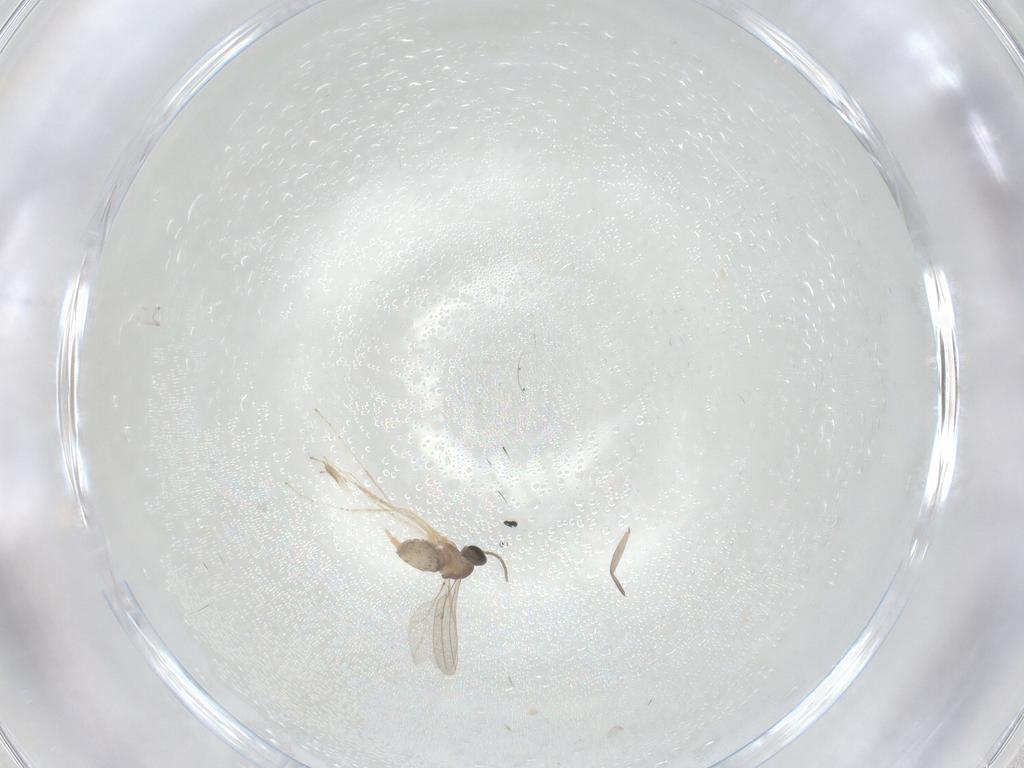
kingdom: Animalia
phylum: Arthropoda
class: Insecta
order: Diptera
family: Cecidomyiidae
